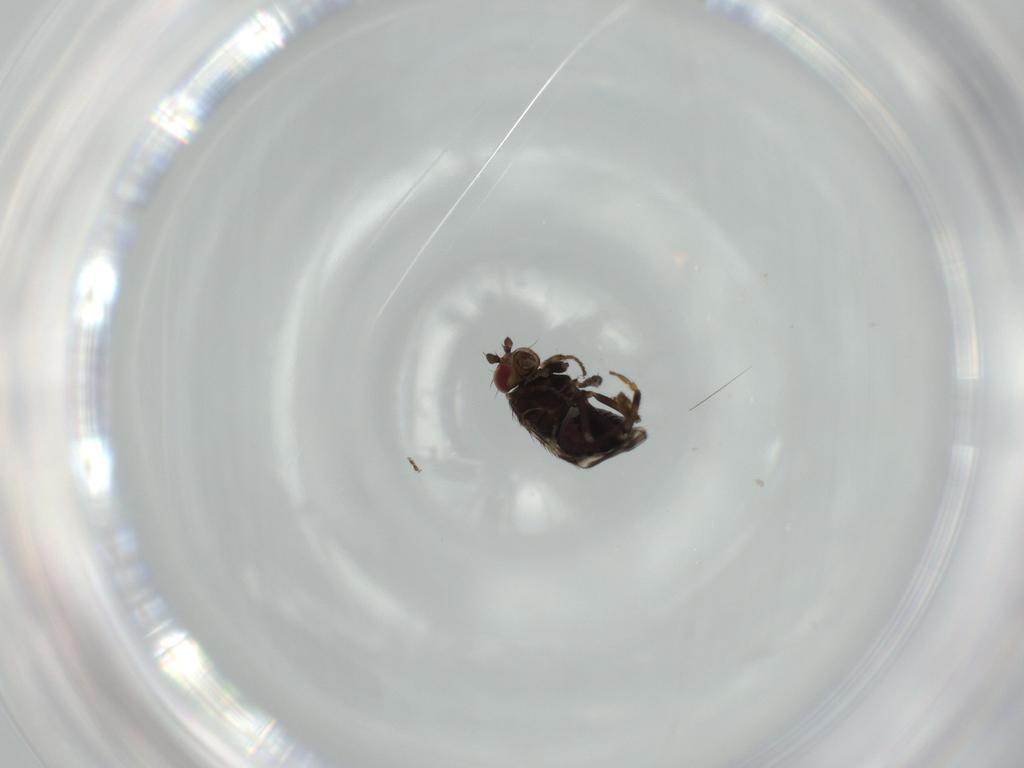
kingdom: Animalia
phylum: Arthropoda
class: Insecta
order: Diptera
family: Sphaeroceridae
